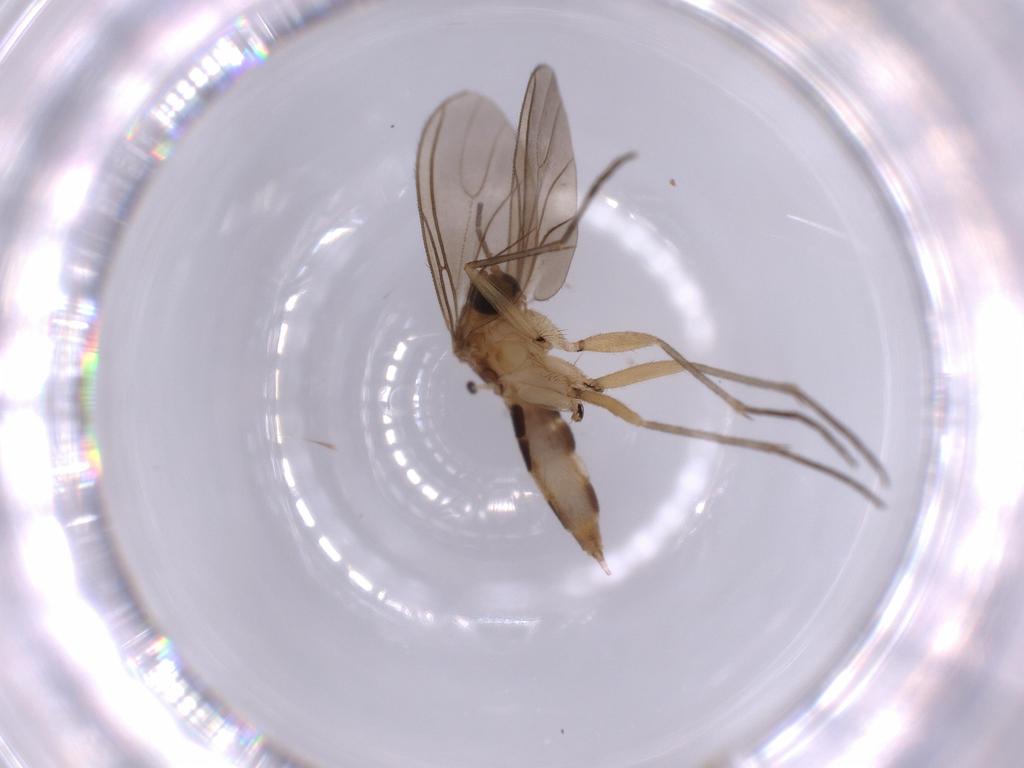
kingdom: Animalia
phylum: Arthropoda
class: Insecta
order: Diptera
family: Sciaridae
